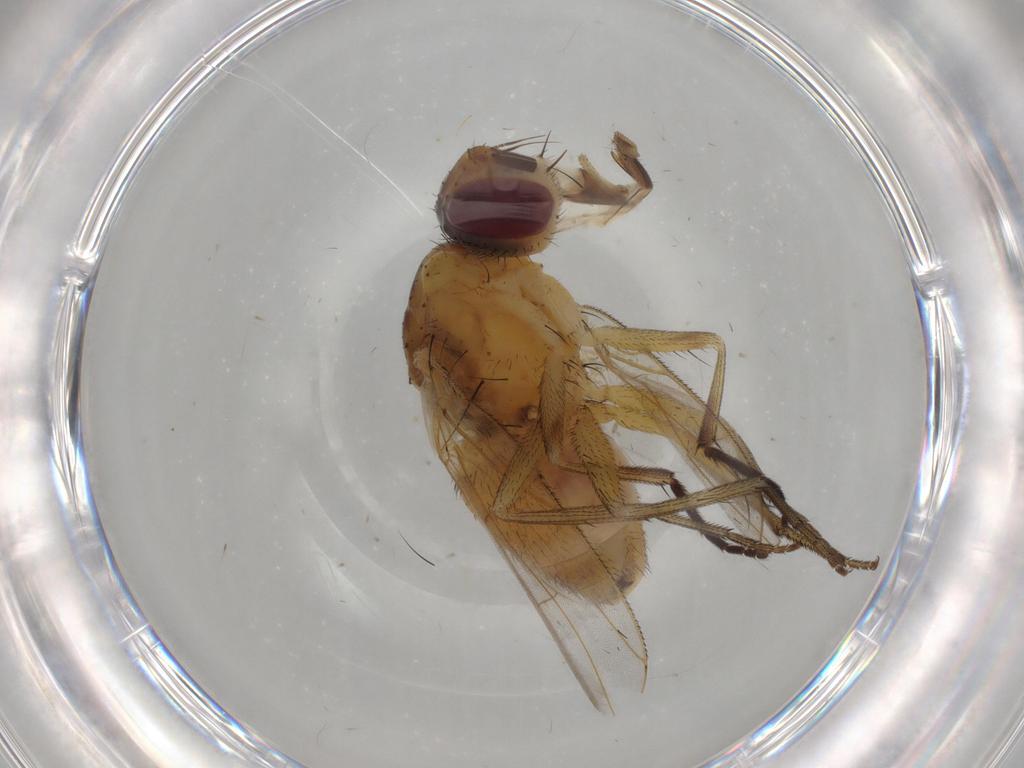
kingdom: Animalia
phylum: Arthropoda
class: Insecta
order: Diptera
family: Muscidae
